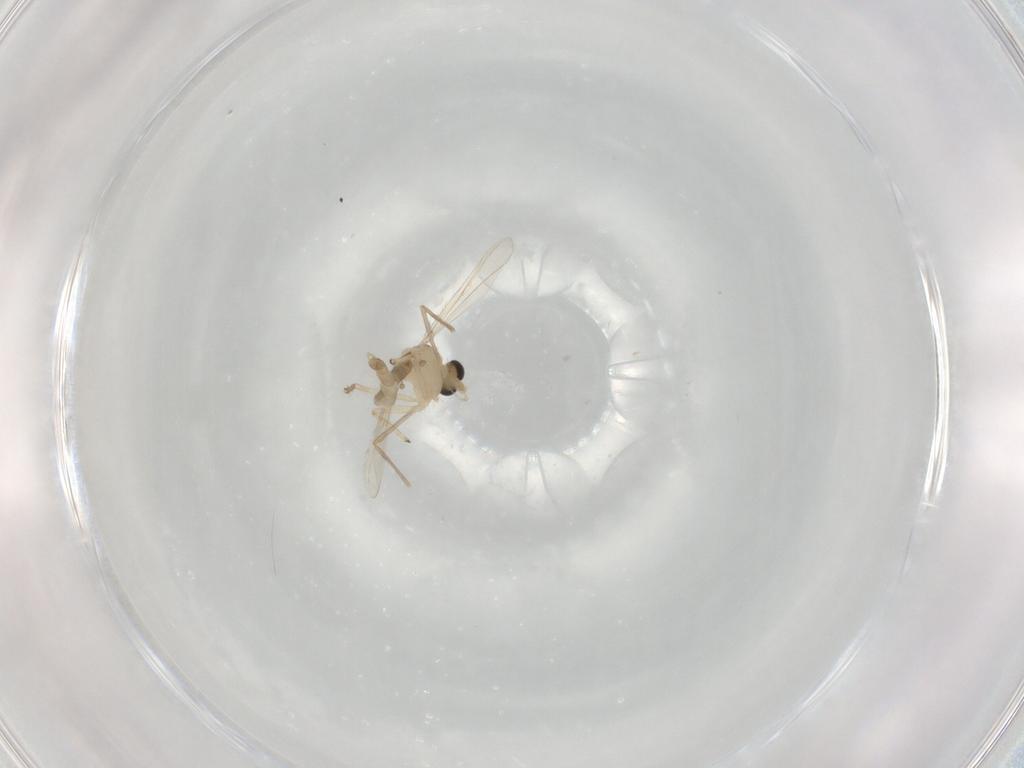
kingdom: Animalia
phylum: Arthropoda
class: Insecta
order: Diptera
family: Chironomidae
